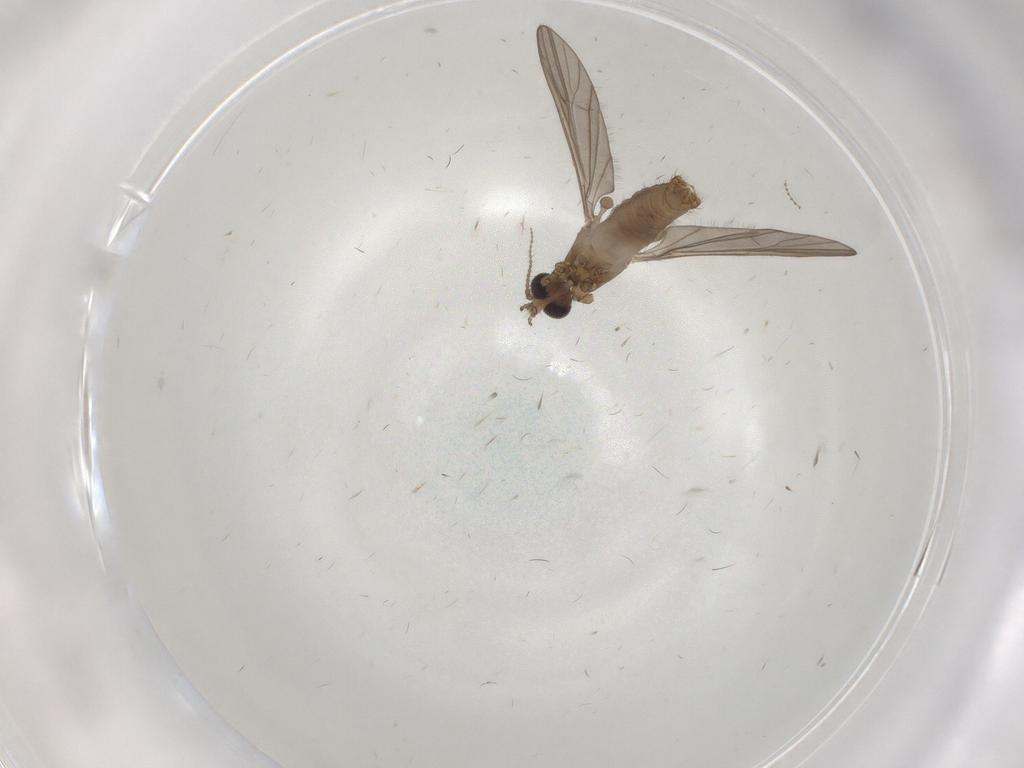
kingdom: Animalia
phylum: Arthropoda
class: Insecta
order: Diptera
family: Limoniidae
